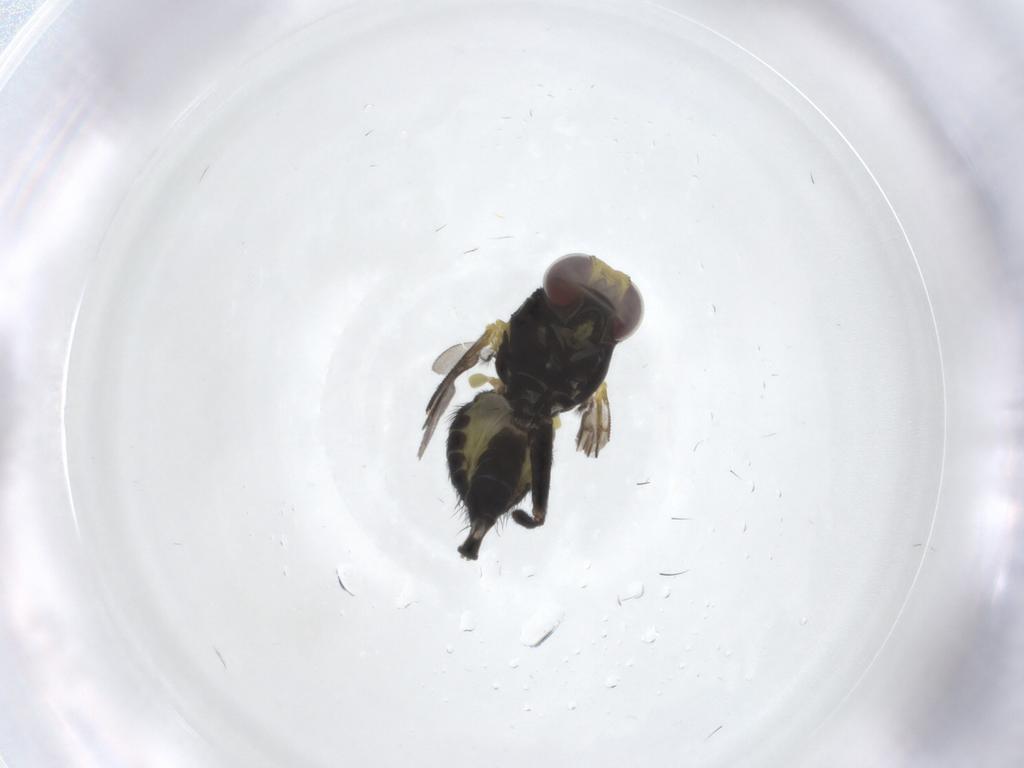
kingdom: Animalia
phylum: Arthropoda
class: Insecta
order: Diptera
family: Agromyzidae
